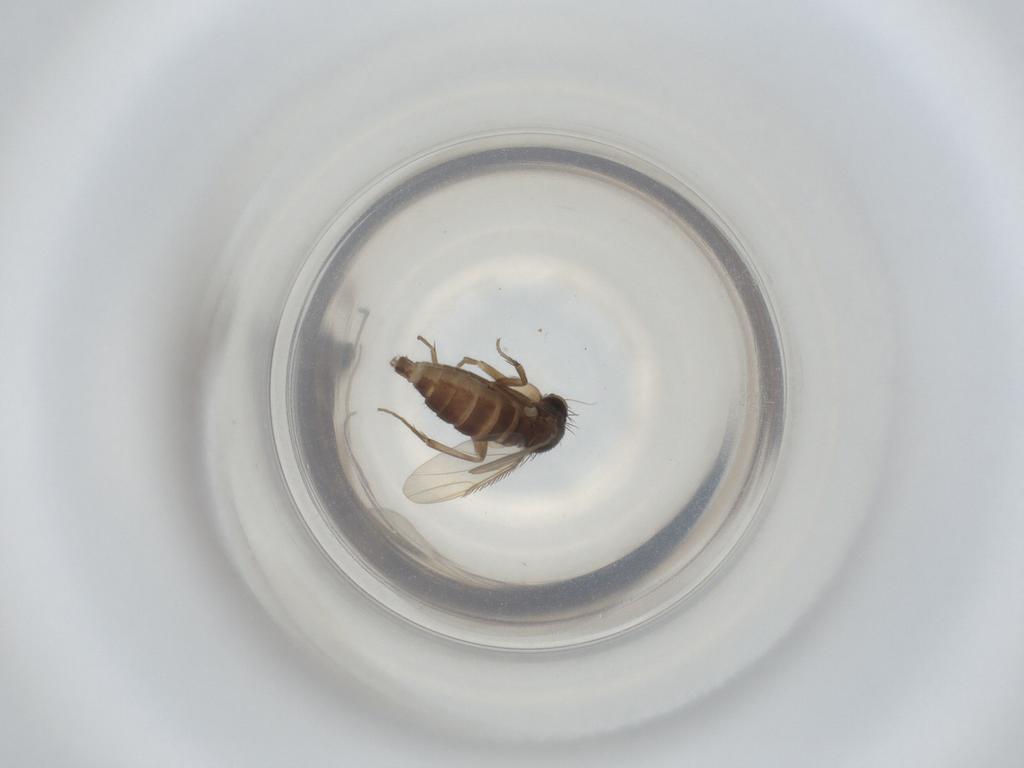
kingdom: Animalia
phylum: Arthropoda
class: Insecta
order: Diptera
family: Phoridae
